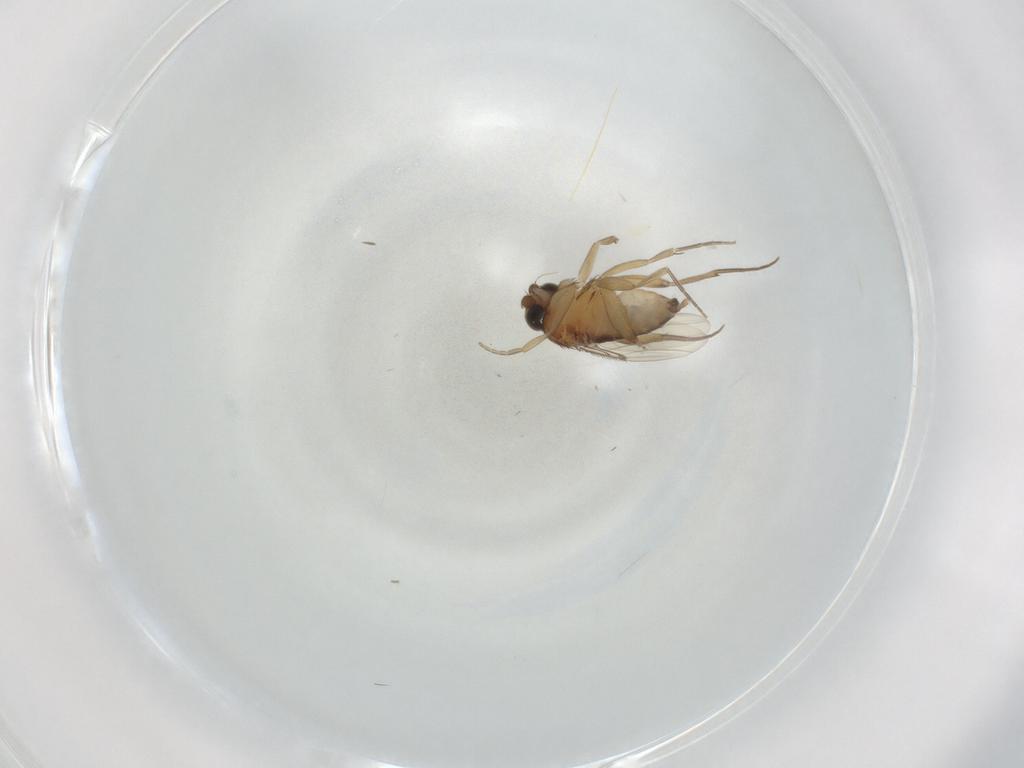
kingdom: Animalia
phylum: Arthropoda
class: Insecta
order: Diptera
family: Cecidomyiidae
